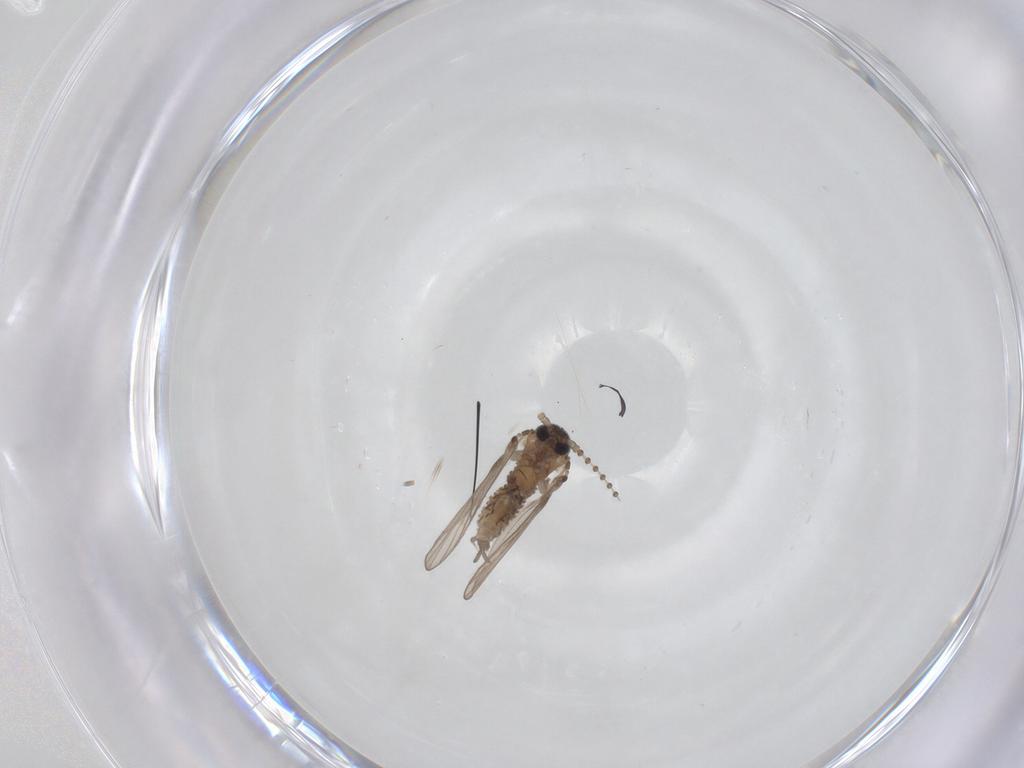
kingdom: Animalia
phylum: Arthropoda
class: Insecta
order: Diptera
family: Psychodidae
